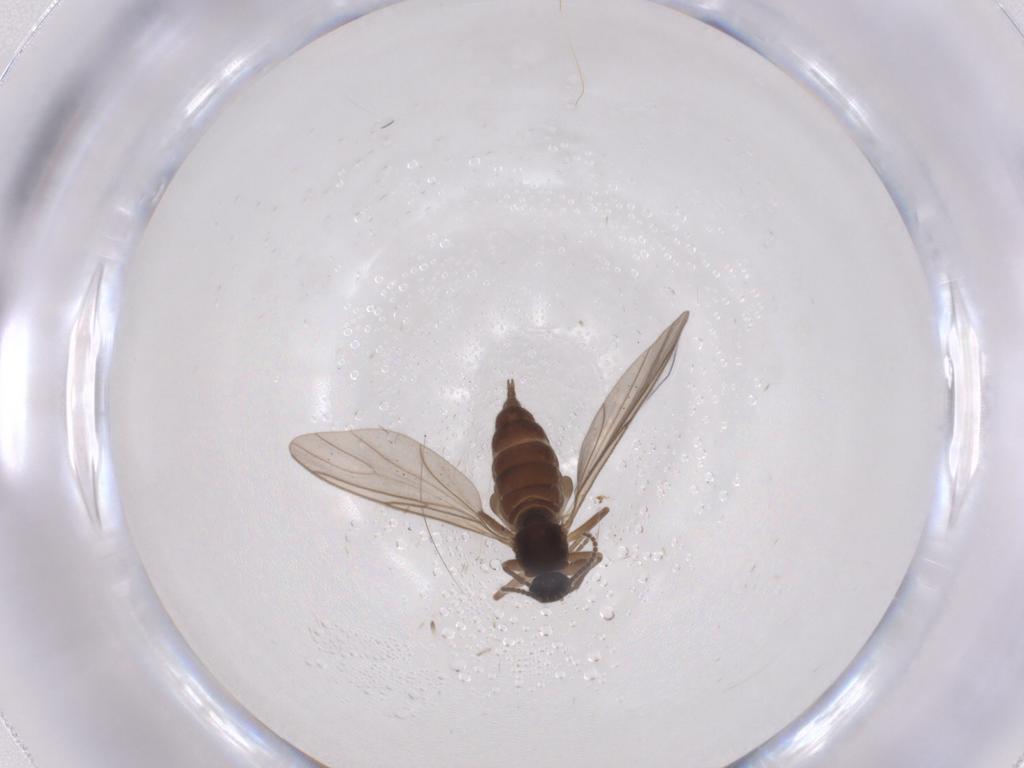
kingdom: Animalia
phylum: Arthropoda
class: Insecta
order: Diptera
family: Sciaridae
